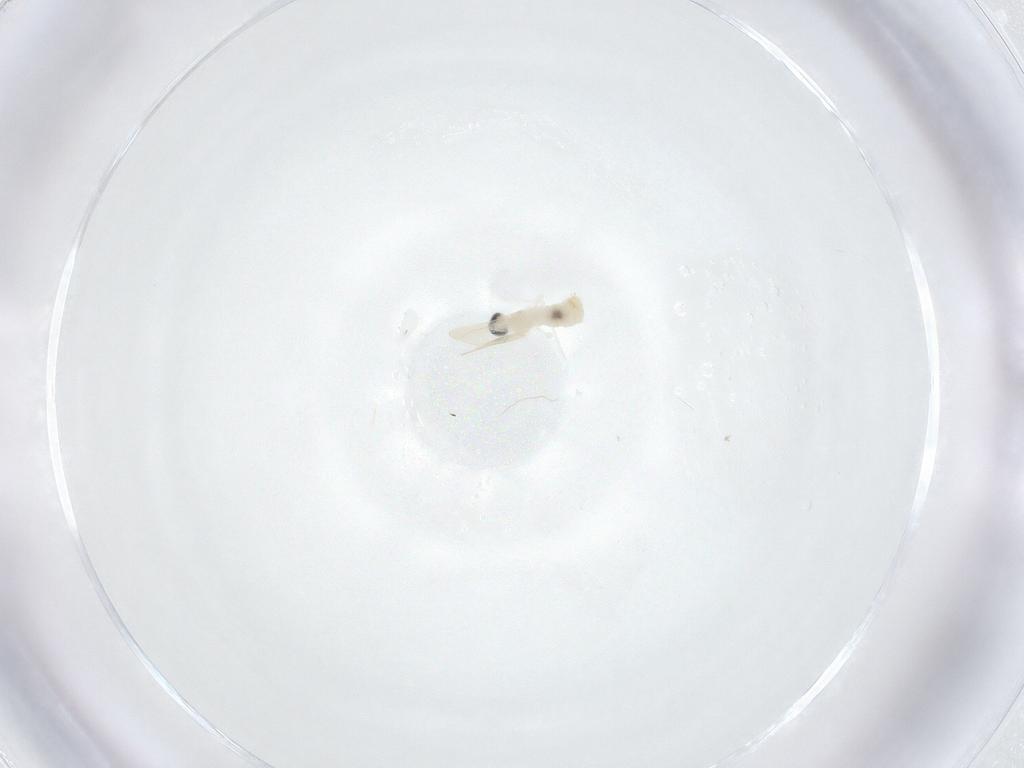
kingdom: Animalia
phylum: Arthropoda
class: Insecta
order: Diptera
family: Cecidomyiidae
